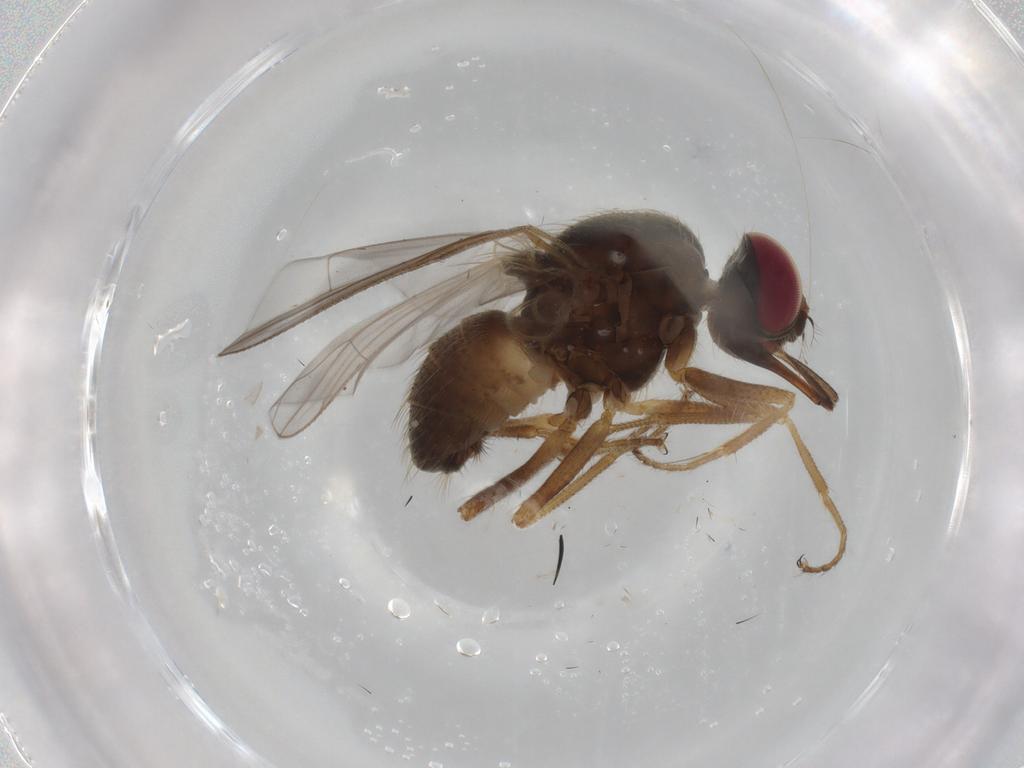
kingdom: Animalia
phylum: Arthropoda
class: Insecta
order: Diptera
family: Psychodidae
